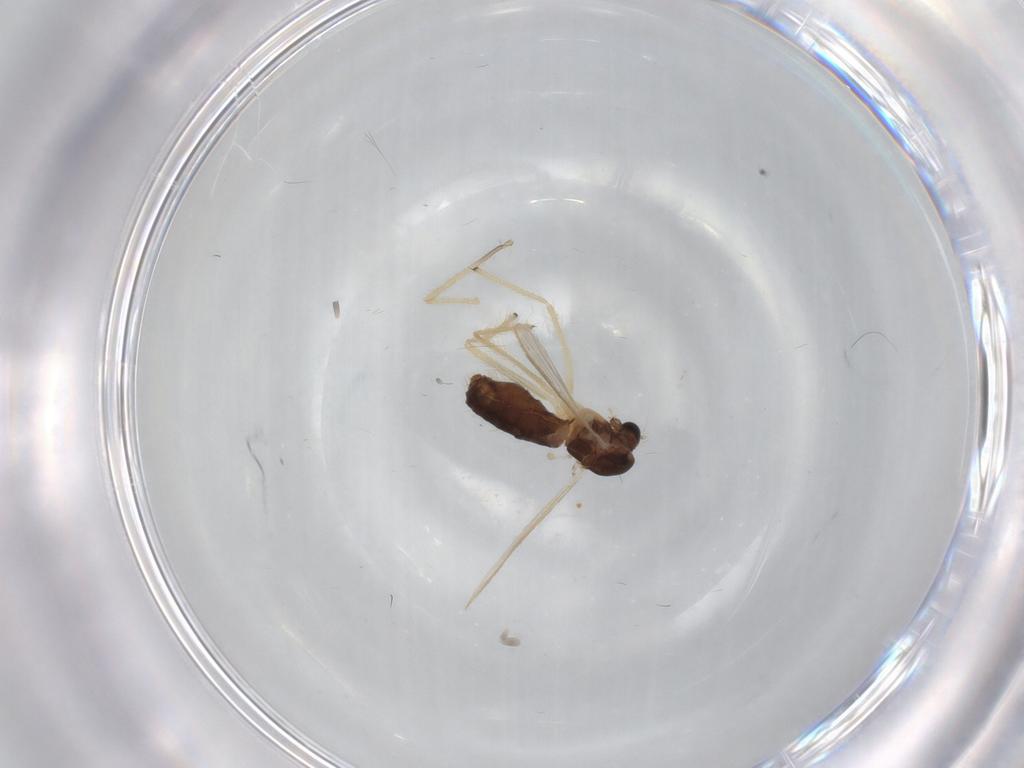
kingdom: Animalia
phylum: Arthropoda
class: Insecta
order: Diptera
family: Chironomidae
